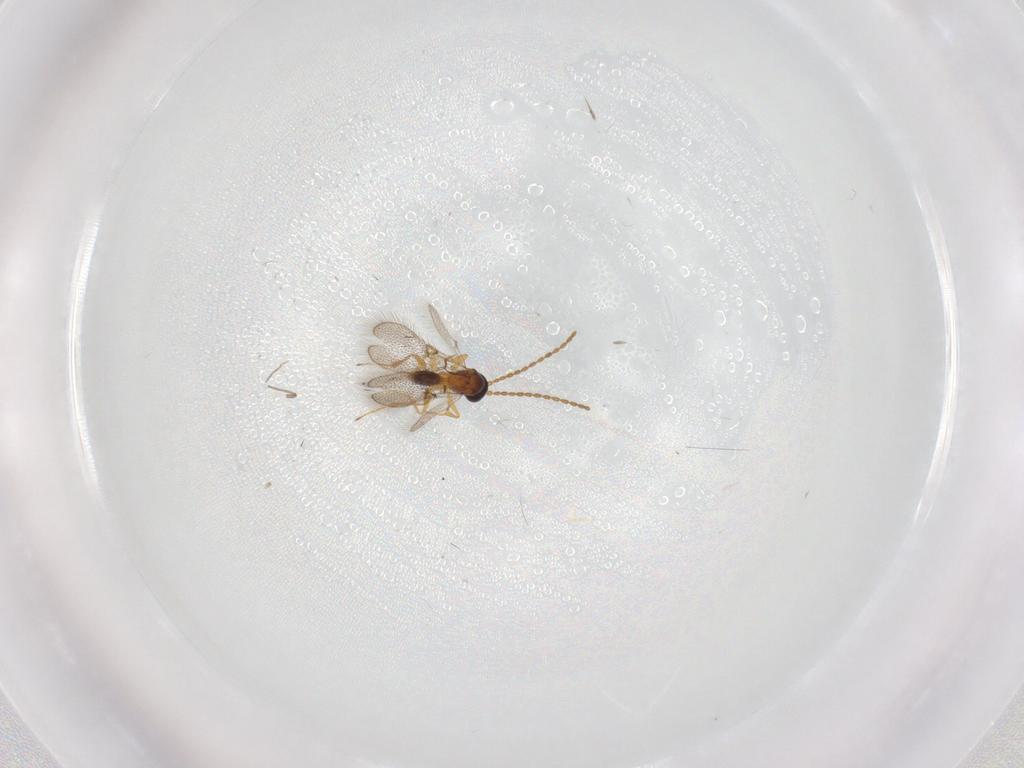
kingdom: Animalia
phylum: Arthropoda
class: Insecta
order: Hymenoptera
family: Figitidae
